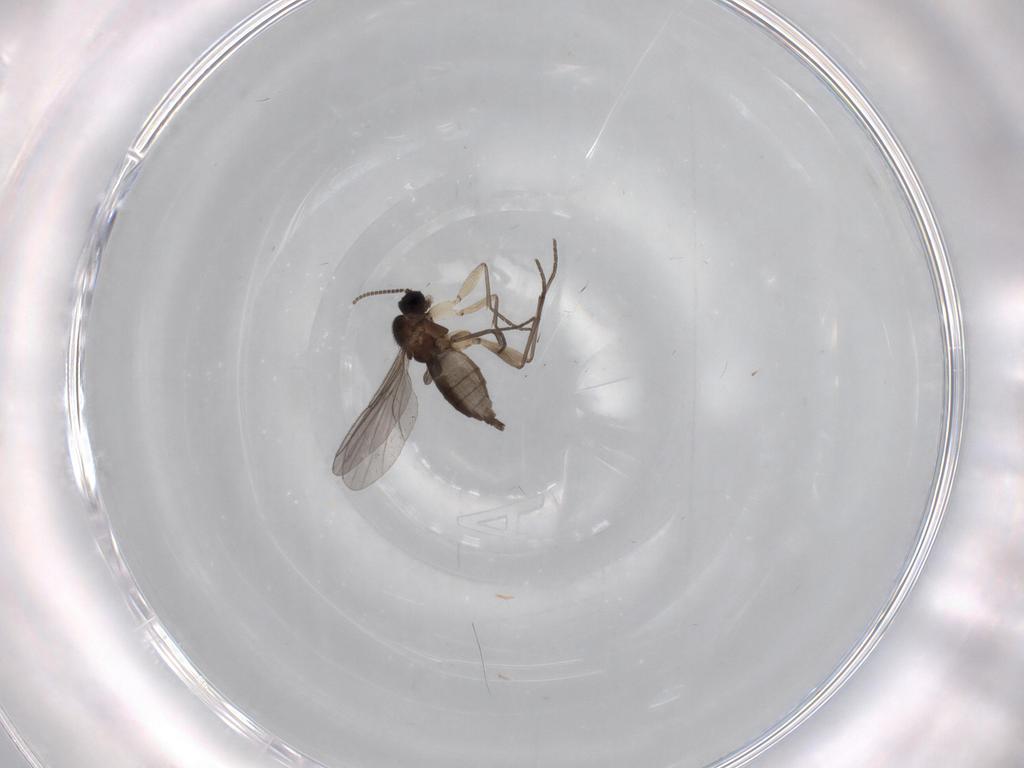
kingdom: Animalia
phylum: Arthropoda
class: Insecta
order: Diptera
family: Sciaridae
